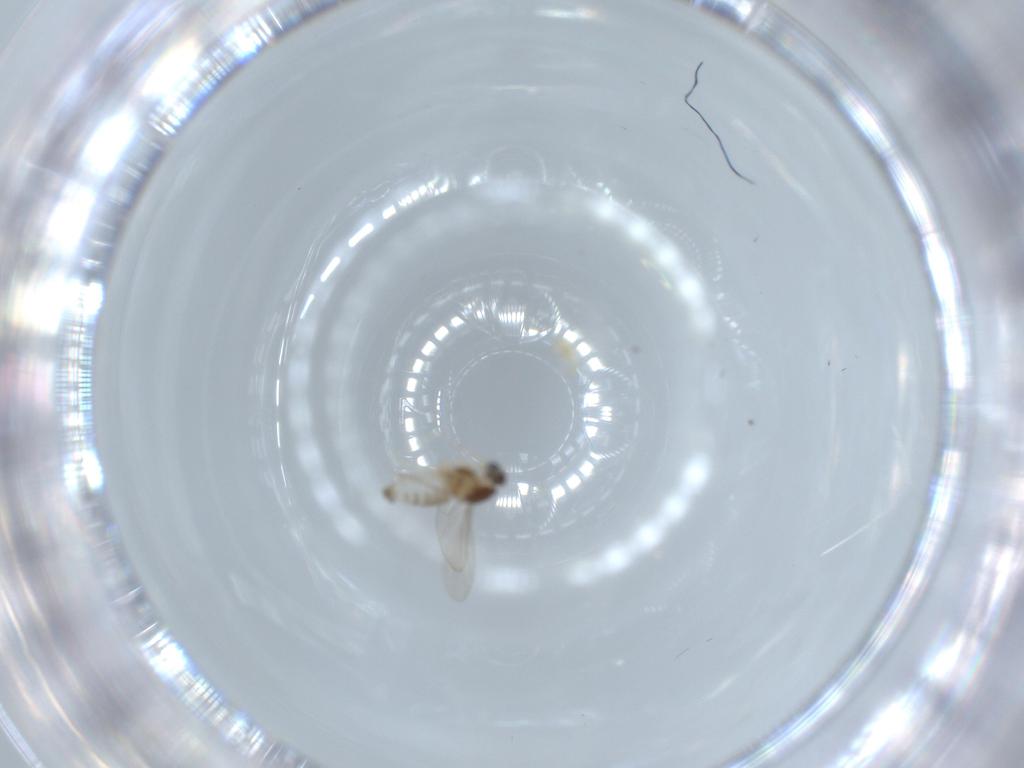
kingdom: Animalia
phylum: Arthropoda
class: Insecta
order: Diptera
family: Cecidomyiidae
